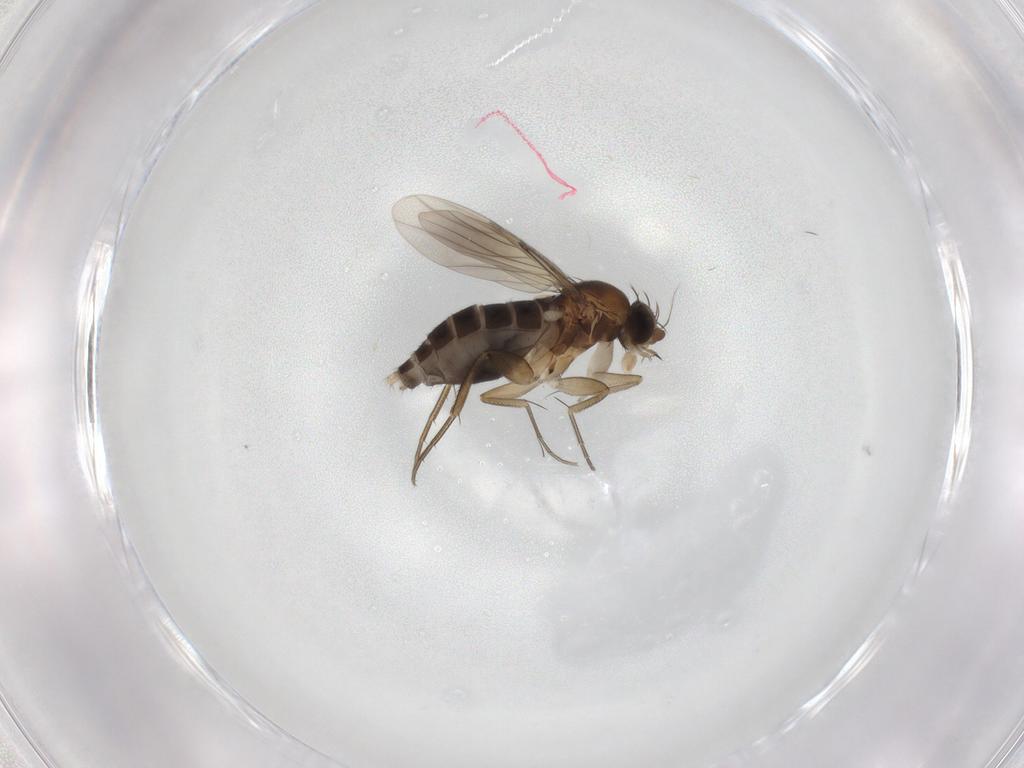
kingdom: Animalia
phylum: Arthropoda
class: Insecta
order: Diptera
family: Phoridae
